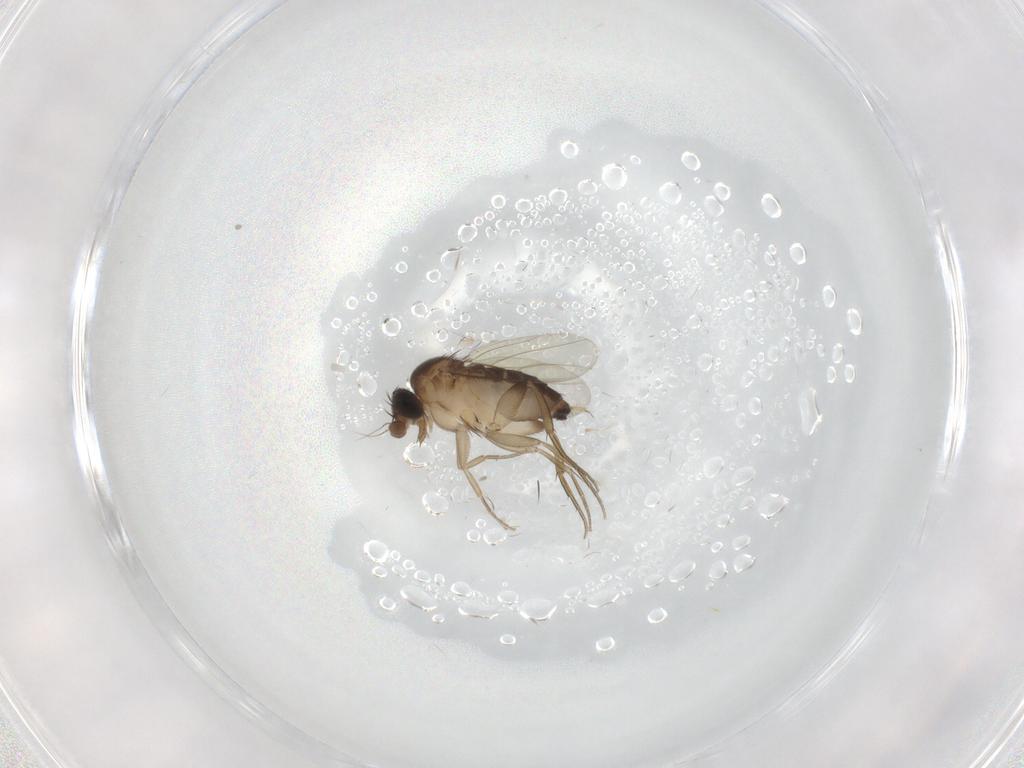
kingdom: Animalia
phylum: Arthropoda
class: Insecta
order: Diptera
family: Phoridae
